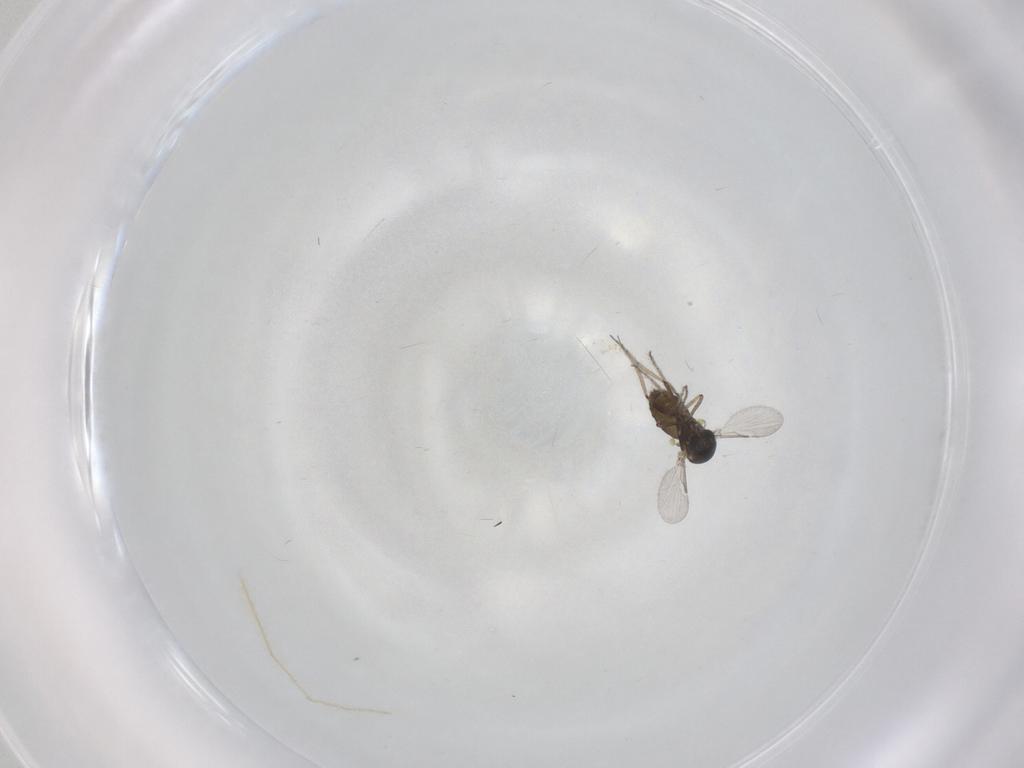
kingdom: Animalia
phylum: Arthropoda
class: Insecta
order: Diptera
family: Ceratopogonidae
